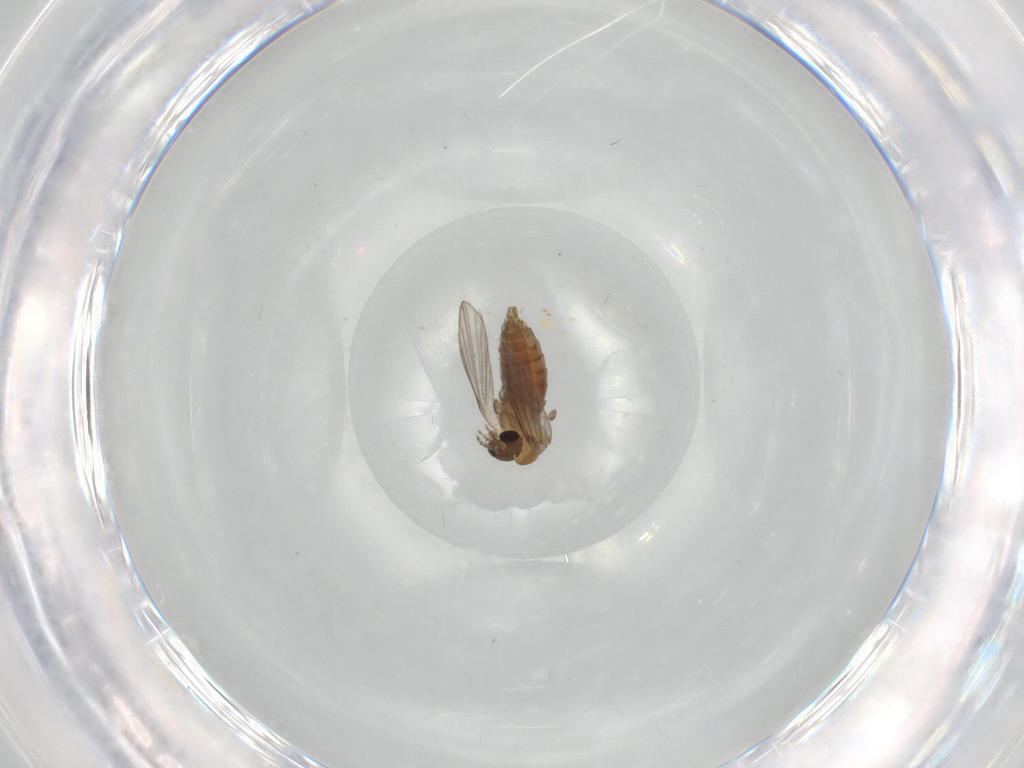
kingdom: Animalia
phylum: Arthropoda
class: Insecta
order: Diptera
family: Psychodidae
